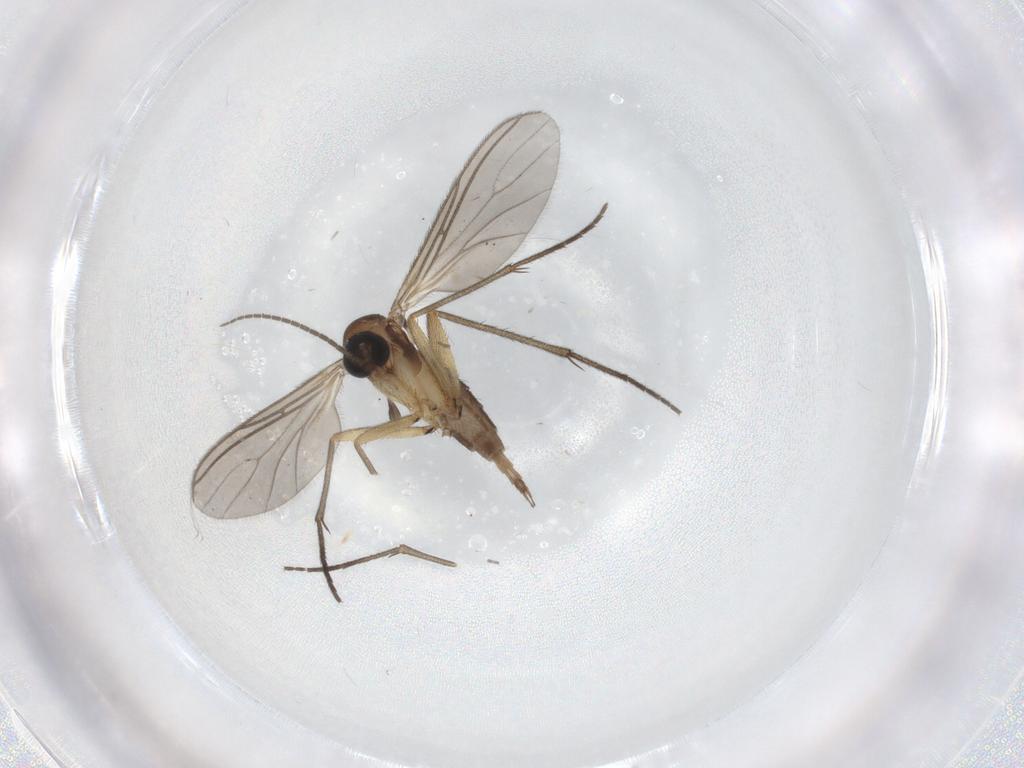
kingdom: Animalia
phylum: Arthropoda
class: Insecta
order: Diptera
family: Sciaridae
